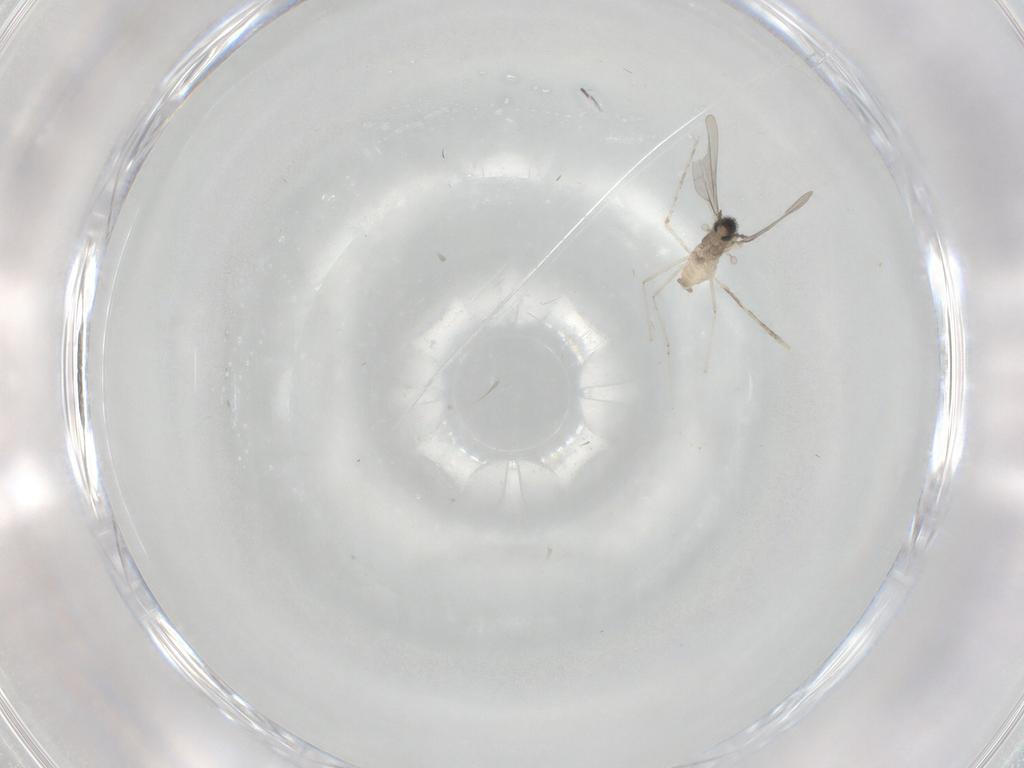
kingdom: Animalia
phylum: Arthropoda
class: Insecta
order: Diptera
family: Cecidomyiidae
